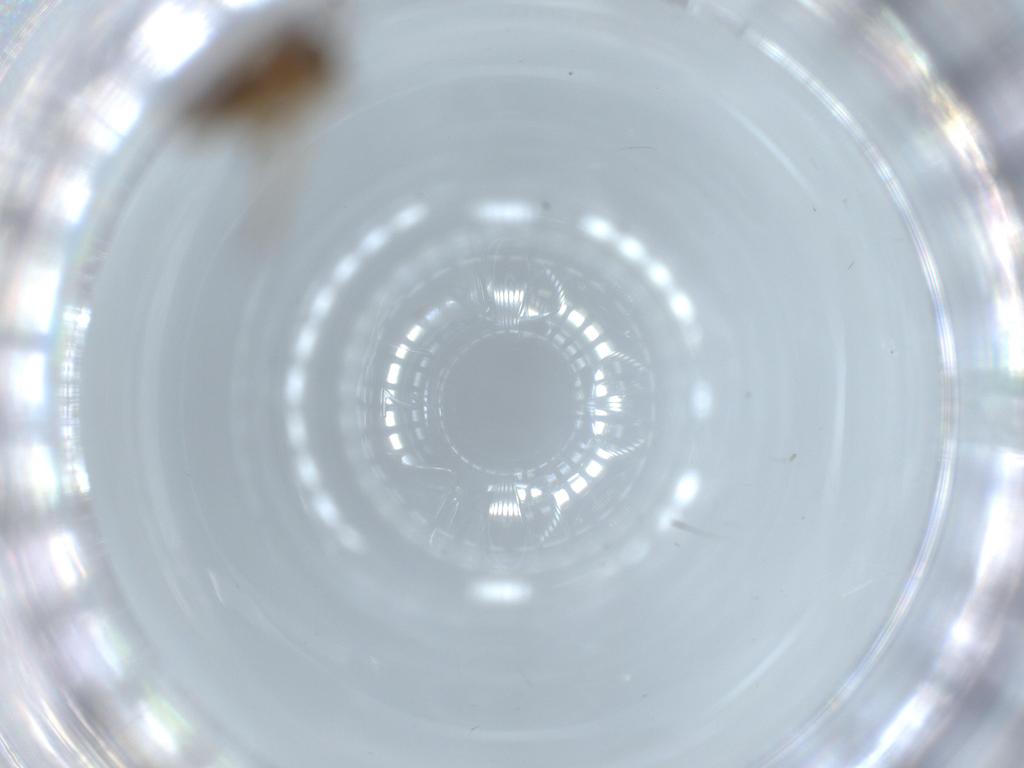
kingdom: Animalia
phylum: Arthropoda
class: Insecta
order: Diptera
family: Cecidomyiidae
